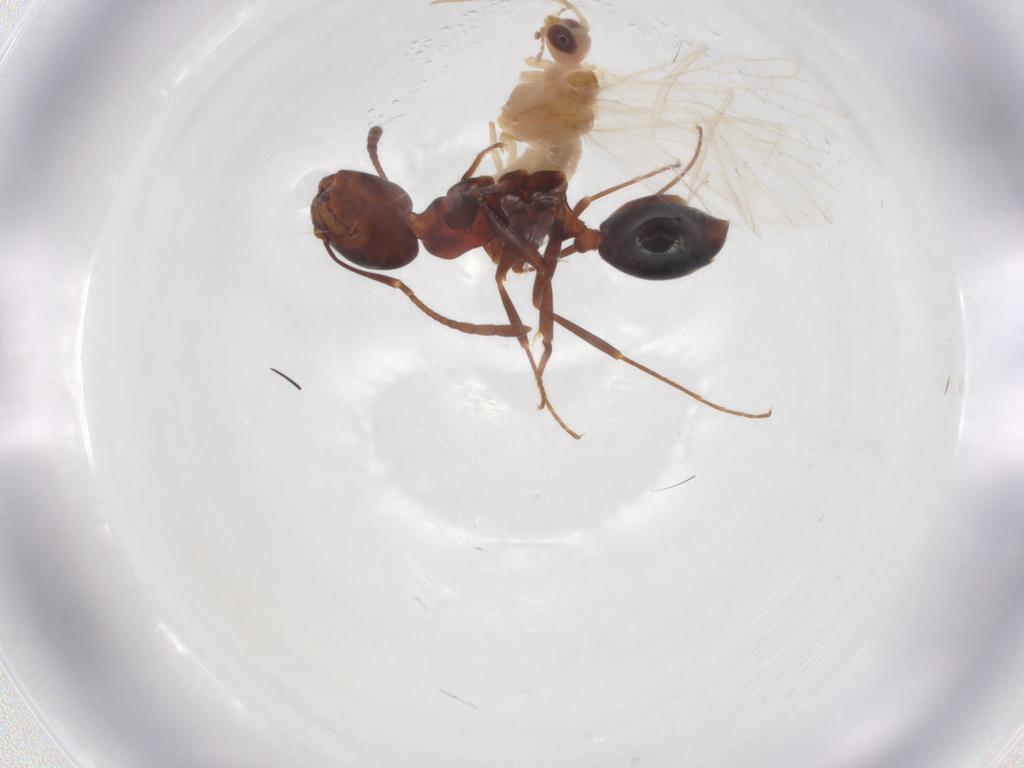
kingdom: Animalia
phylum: Arthropoda
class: Insecta
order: Hymenoptera
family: Formicidae
